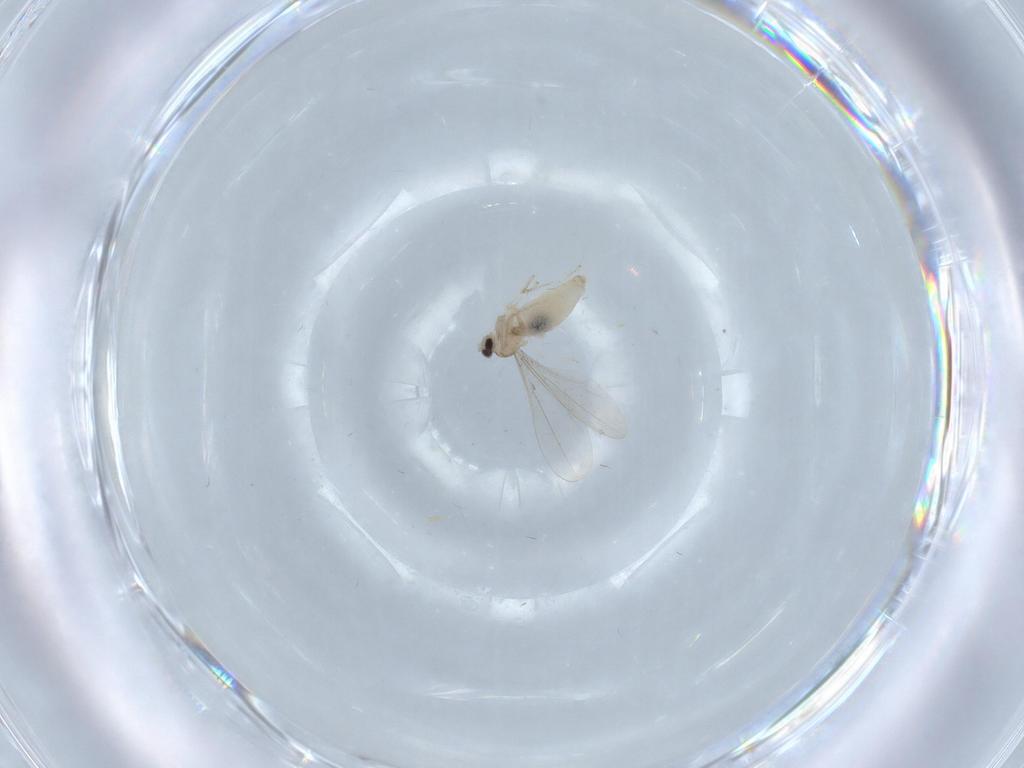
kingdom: Animalia
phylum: Arthropoda
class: Insecta
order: Diptera
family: Cecidomyiidae
